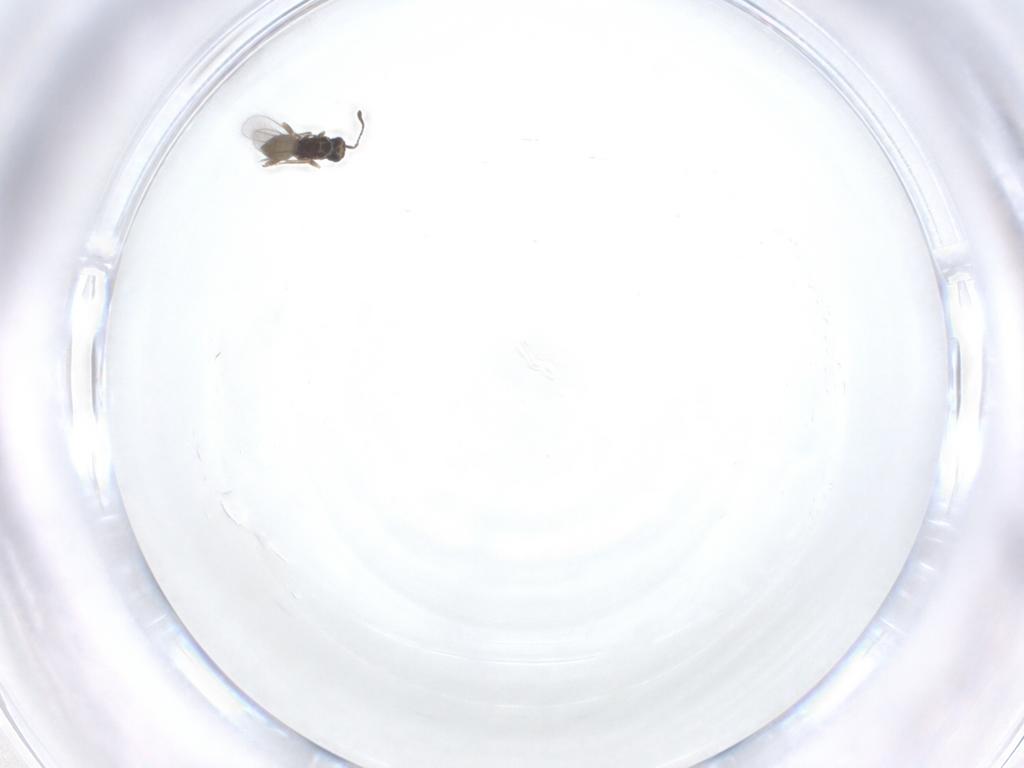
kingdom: Animalia
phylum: Arthropoda
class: Insecta
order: Hymenoptera
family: Mymaridae
